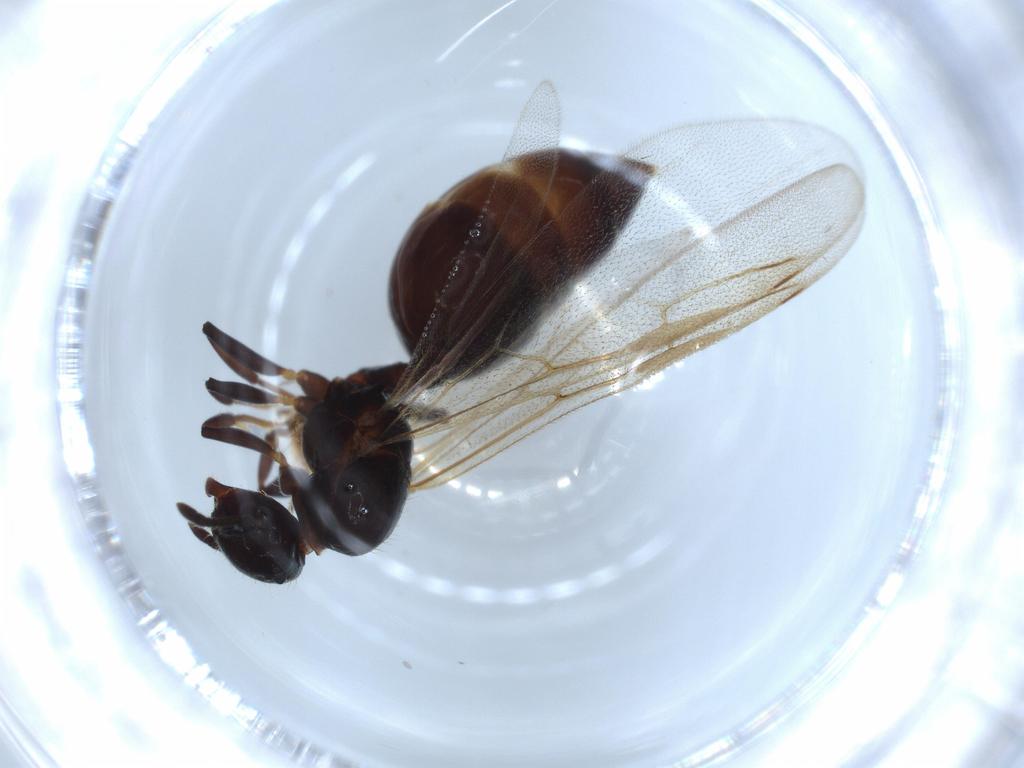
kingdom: Animalia
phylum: Arthropoda
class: Insecta
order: Hymenoptera
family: Formicidae
